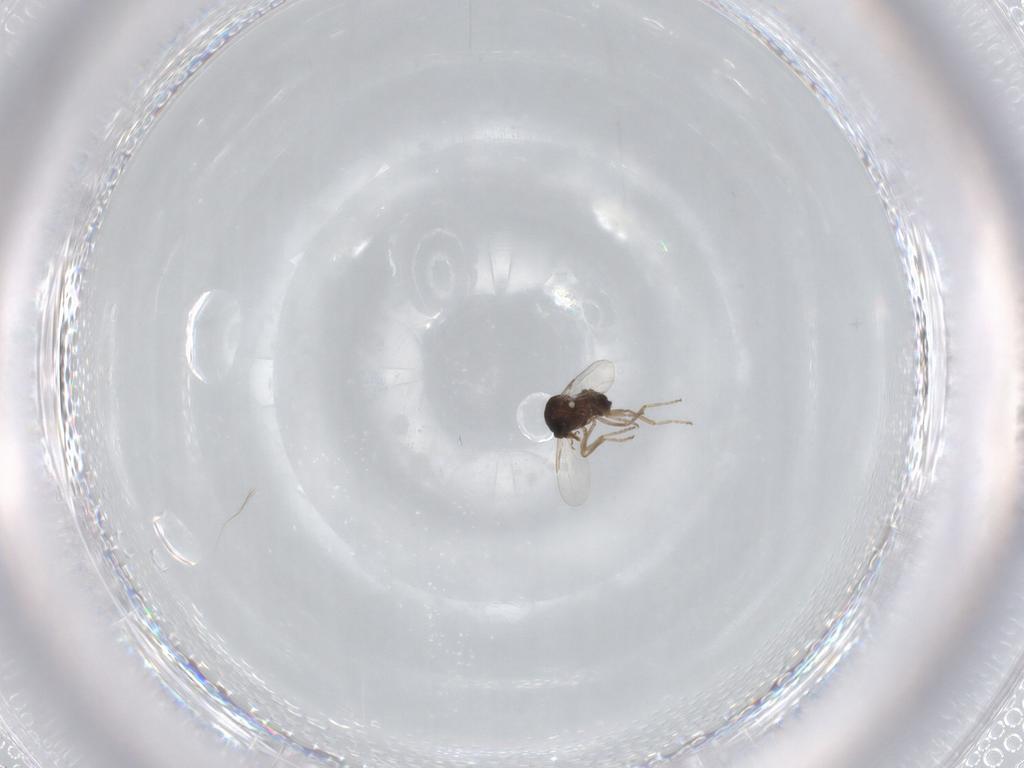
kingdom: Animalia
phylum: Arthropoda
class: Insecta
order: Diptera
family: Ceratopogonidae
